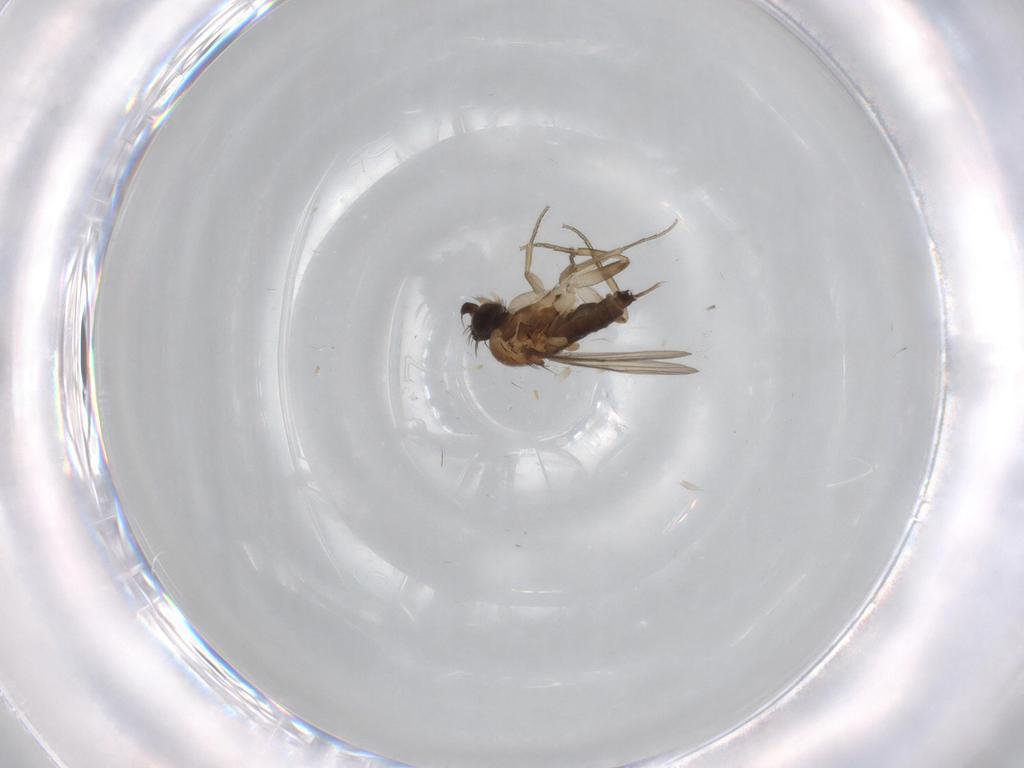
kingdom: Animalia
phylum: Arthropoda
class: Insecta
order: Diptera
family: Phoridae
